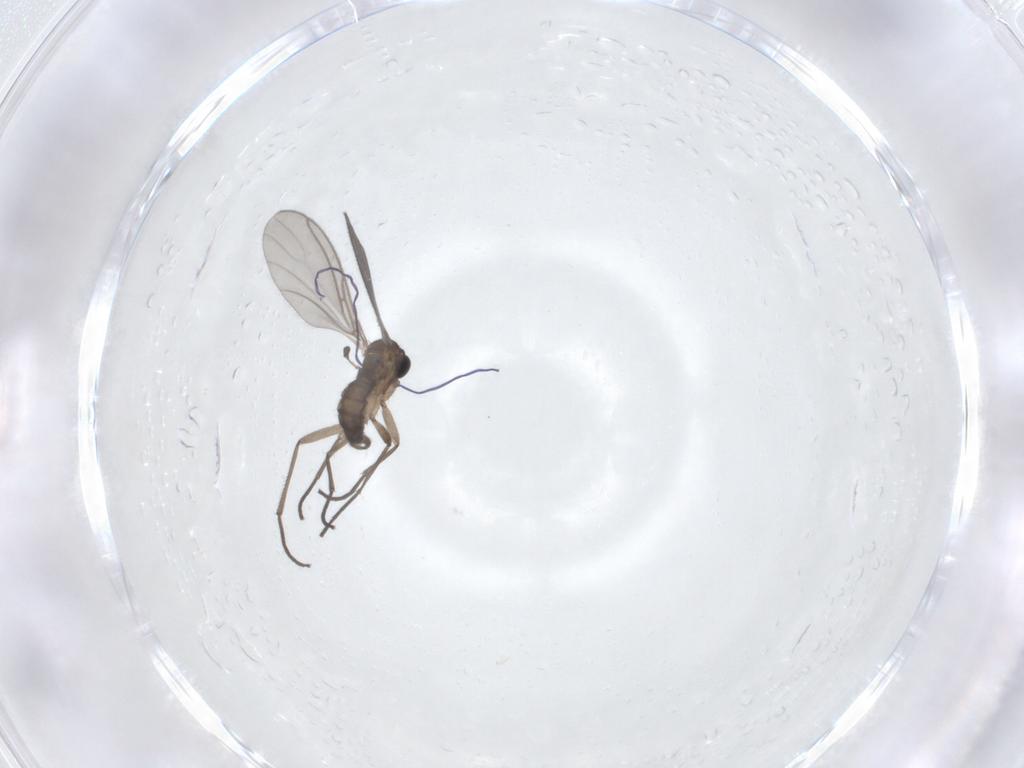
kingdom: Animalia
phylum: Arthropoda
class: Insecta
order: Diptera
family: Sciaridae
